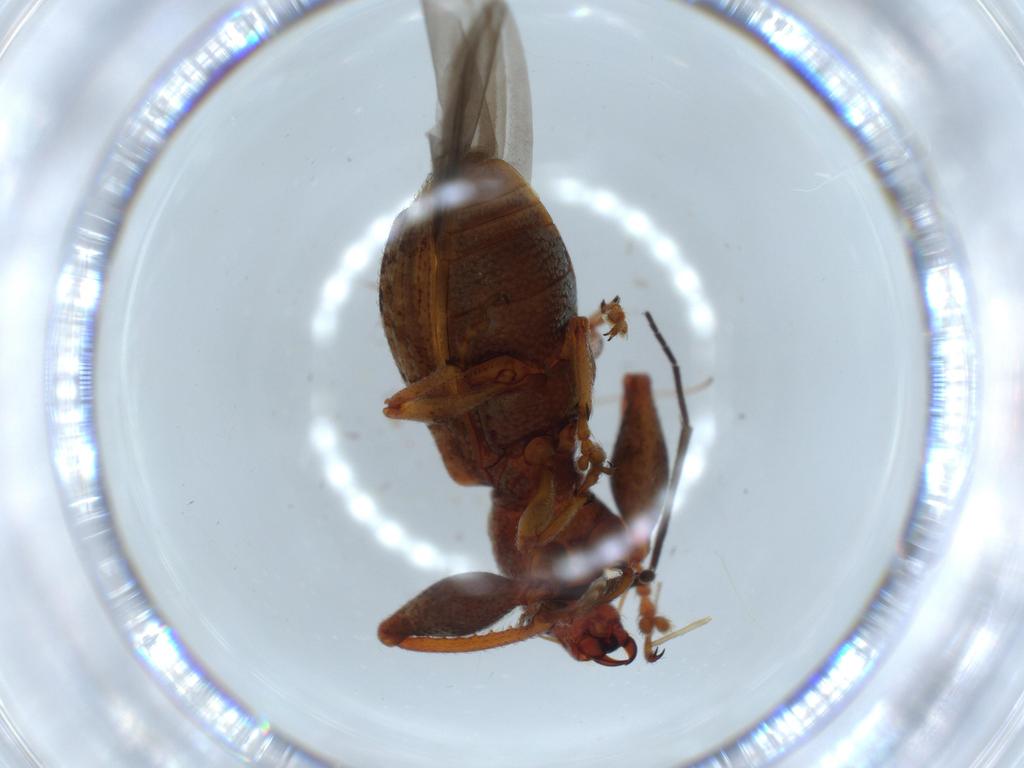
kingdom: Animalia
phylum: Arthropoda
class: Insecta
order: Coleoptera
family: Curculionidae
